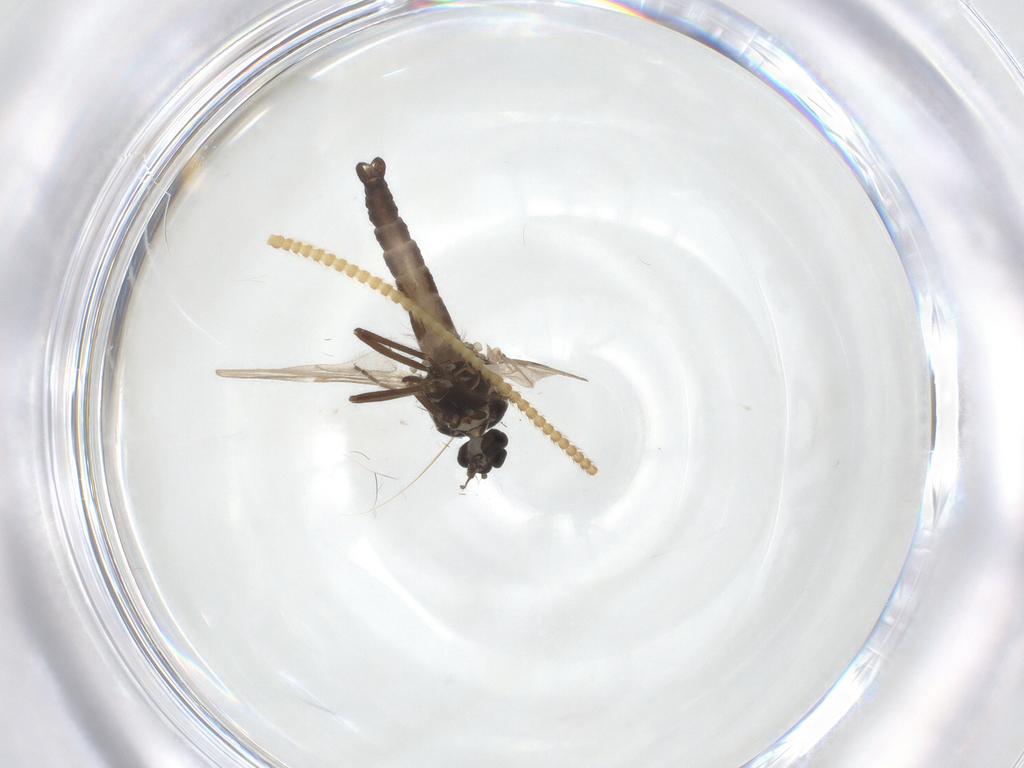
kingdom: Animalia
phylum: Arthropoda
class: Insecta
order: Diptera
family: Ceratopogonidae
